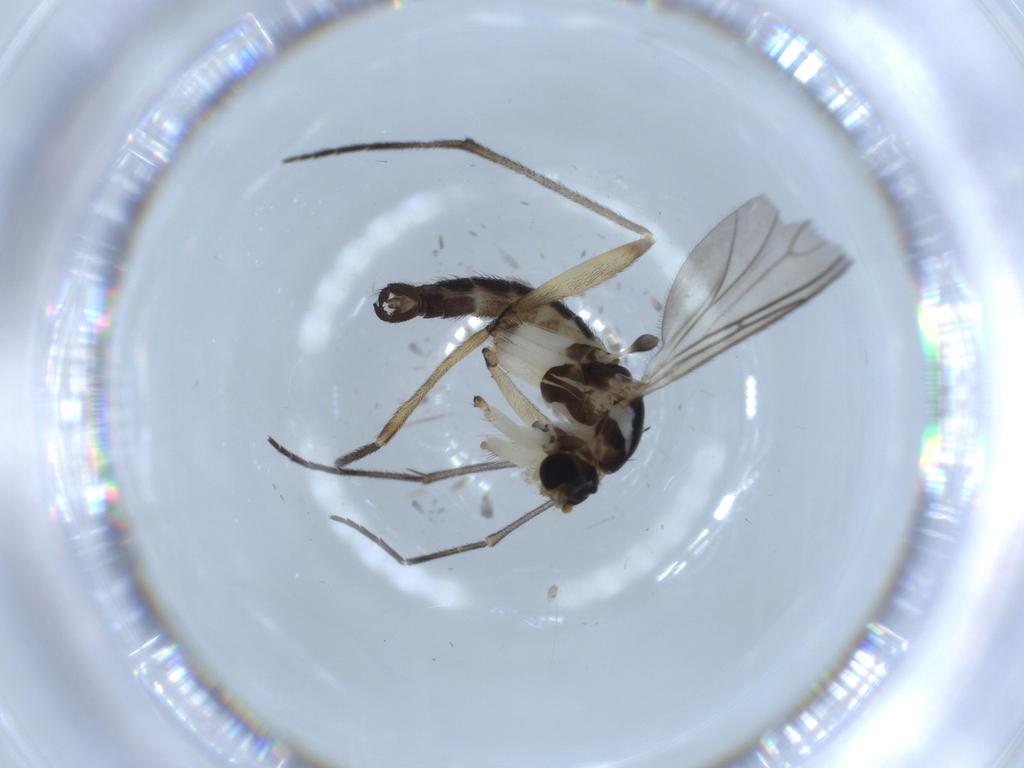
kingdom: Animalia
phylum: Arthropoda
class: Insecta
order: Diptera
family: Sciaridae
